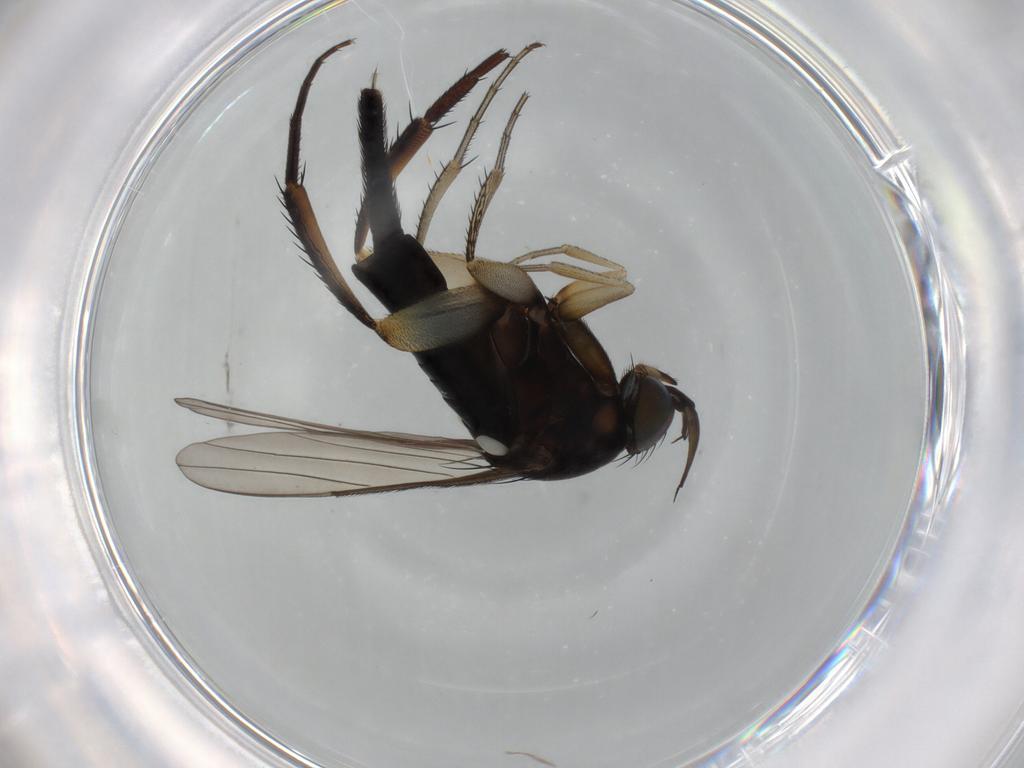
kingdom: Animalia
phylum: Arthropoda
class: Insecta
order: Diptera
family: Phoridae
